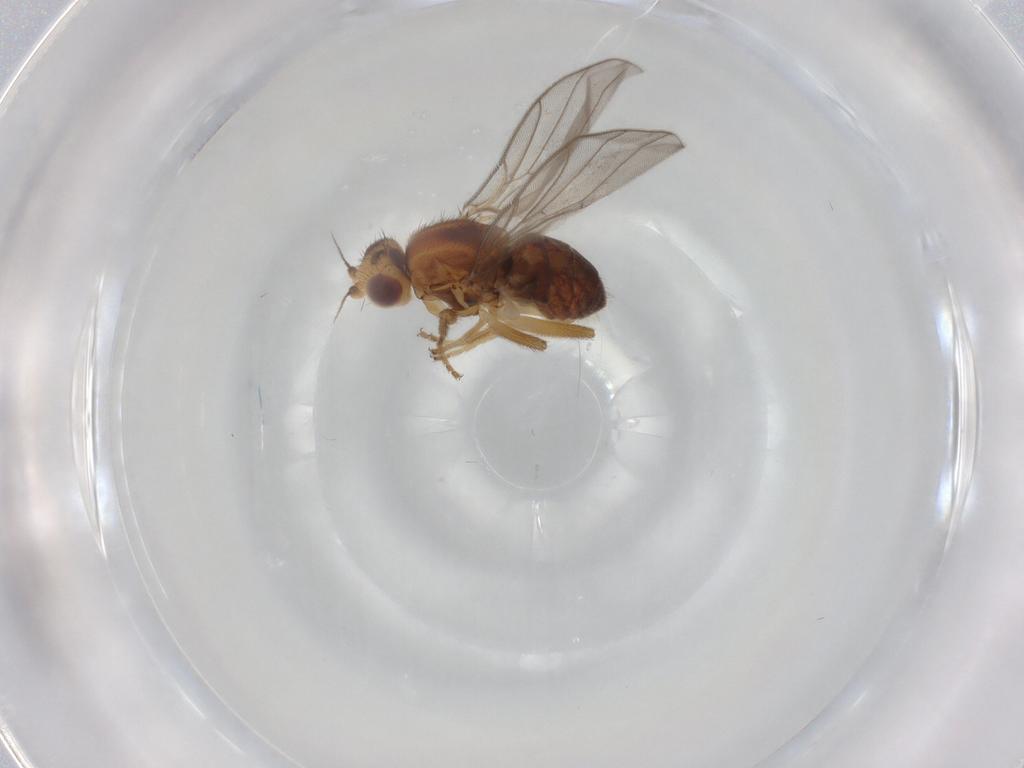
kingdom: Animalia
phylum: Arthropoda
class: Insecta
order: Diptera
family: Chloropidae
